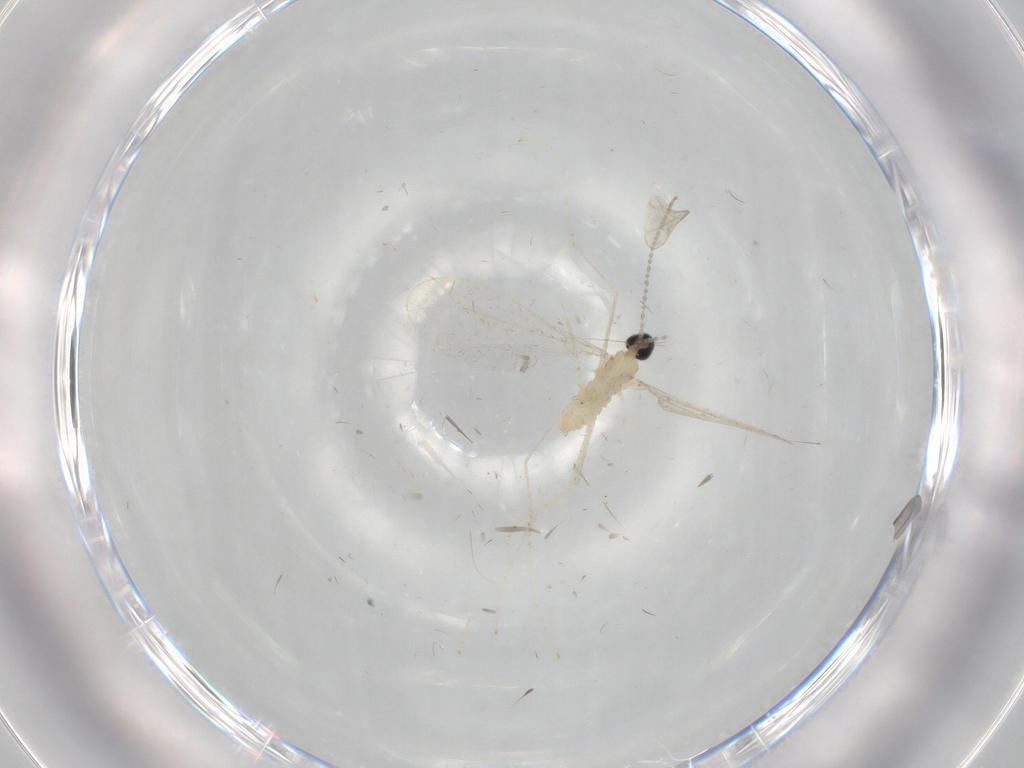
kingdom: Animalia
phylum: Arthropoda
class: Insecta
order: Diptera
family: Cecidomyiidae
